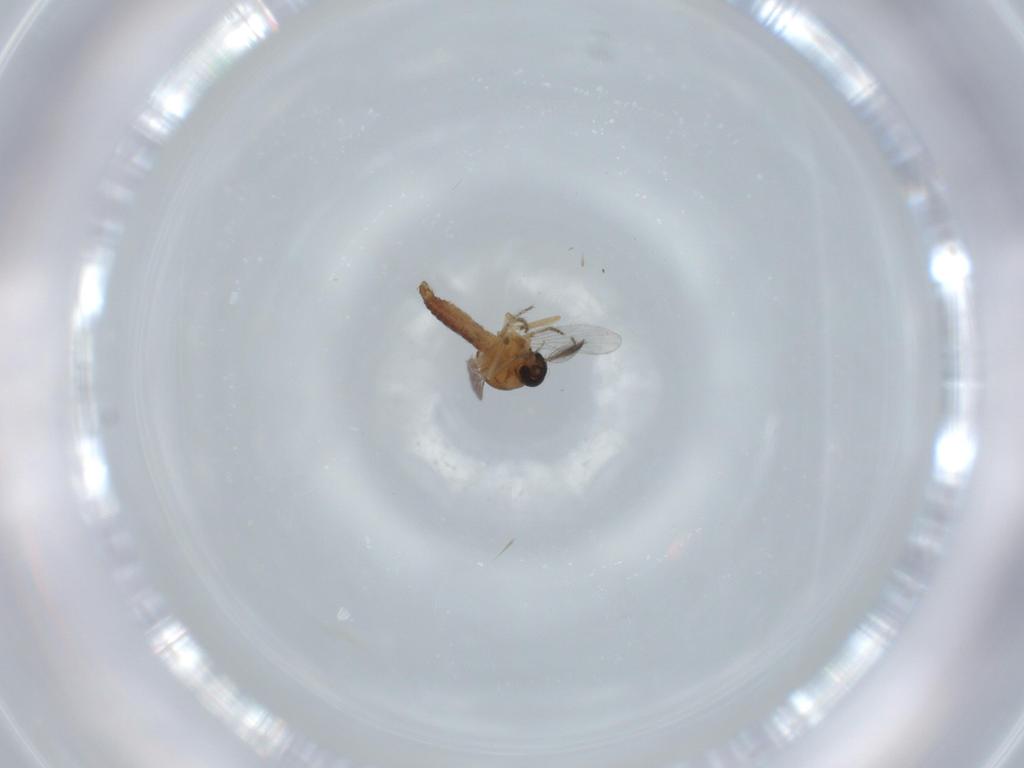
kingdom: Animalia
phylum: Arthropoda
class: Insecta
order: Diptera
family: Ceratopogonidae
